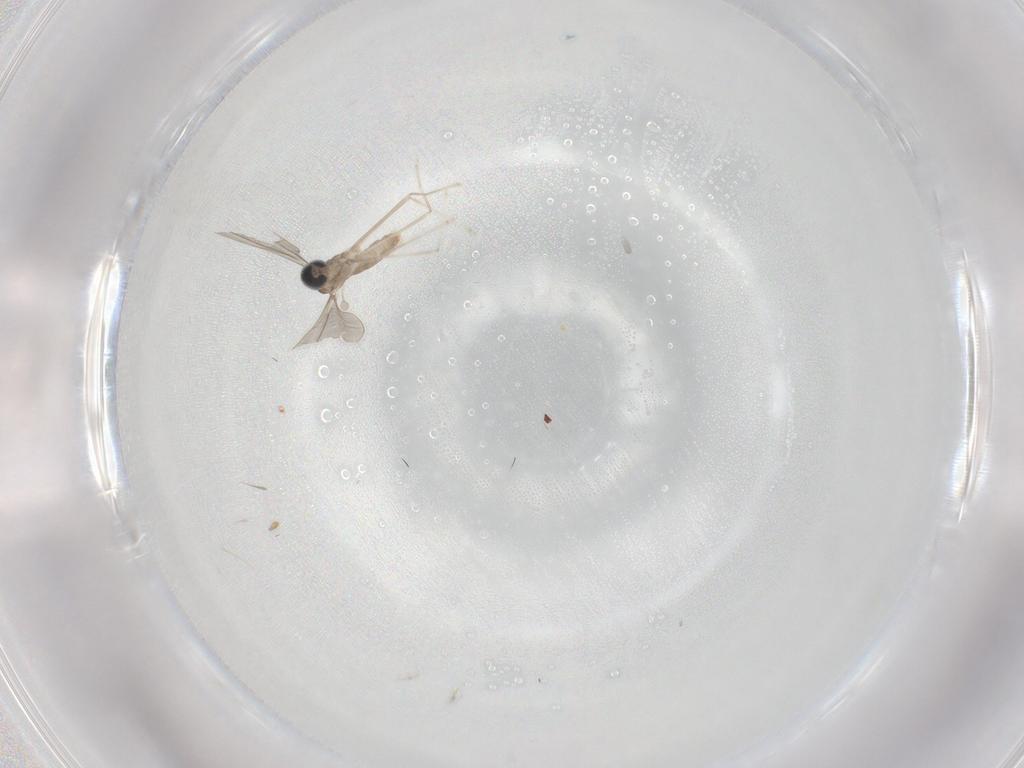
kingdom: Animalia
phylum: Arthropoda
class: Insecta
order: Diptera
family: Cecidomyiidae
